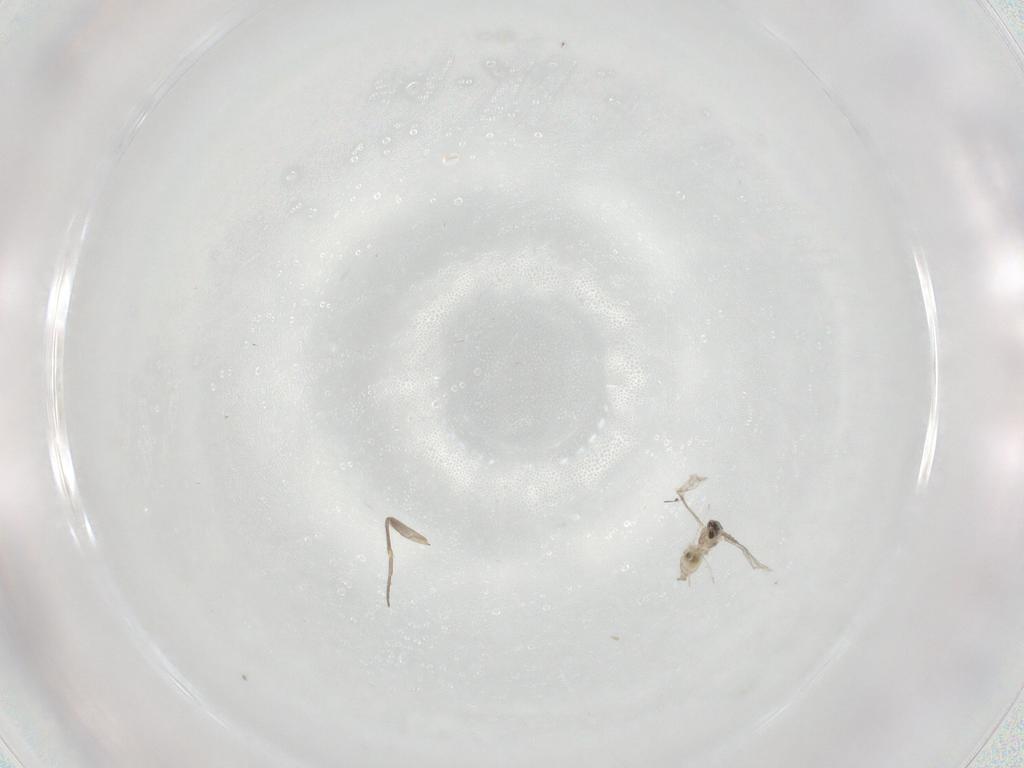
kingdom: Animalia
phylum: Arthropoda
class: Insecta
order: Diptera
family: Cecidomyiidae
